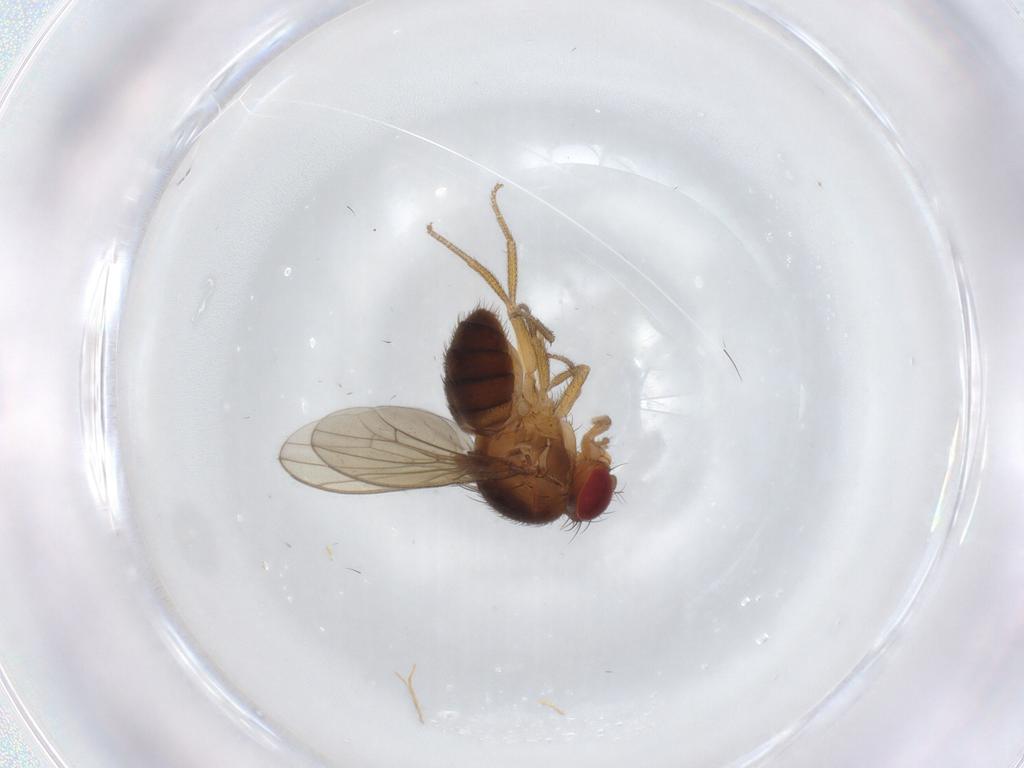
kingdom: Animalia
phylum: Arthropoda
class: Insecta
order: Diptera
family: Drosophilidae
